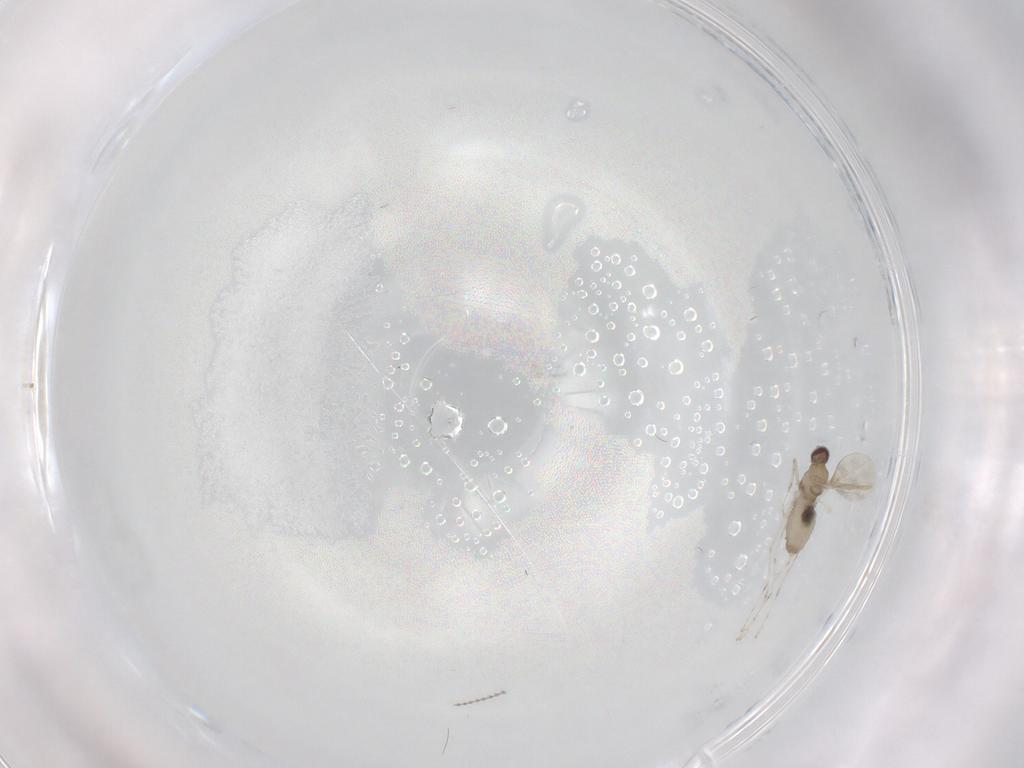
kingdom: Animalia
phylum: Arthropoda
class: Insecta
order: Diptera
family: Cecidomyiidae
